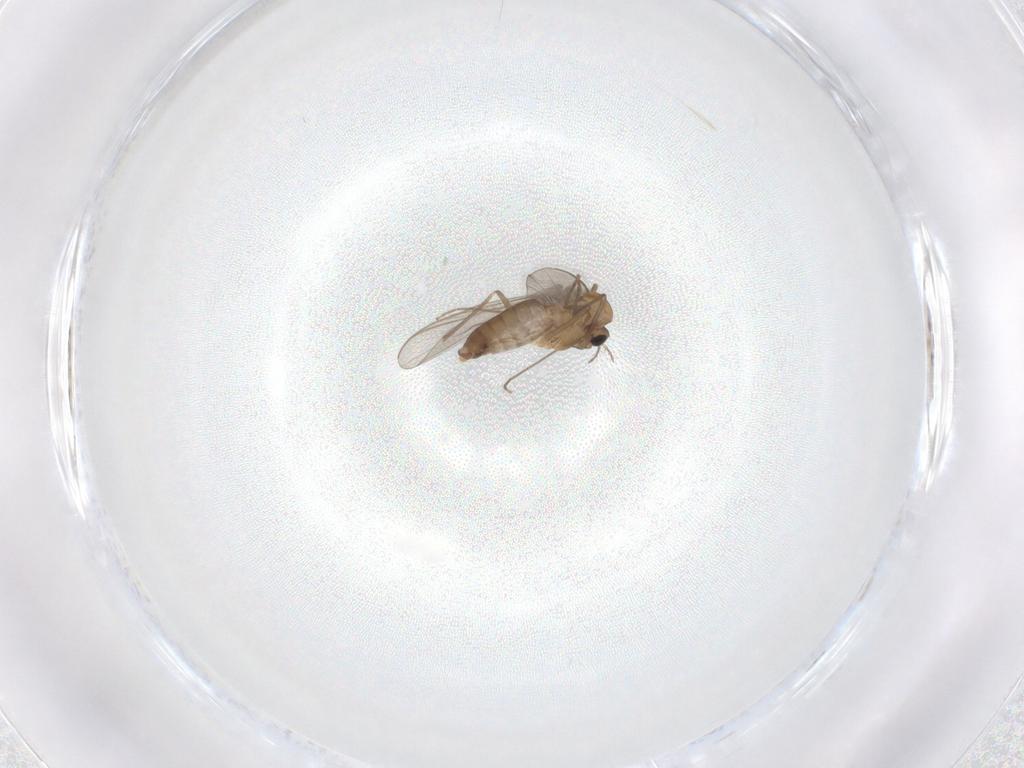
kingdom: Animalia
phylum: Arthropoda
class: Insecta
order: Diptera
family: Chironomidae
